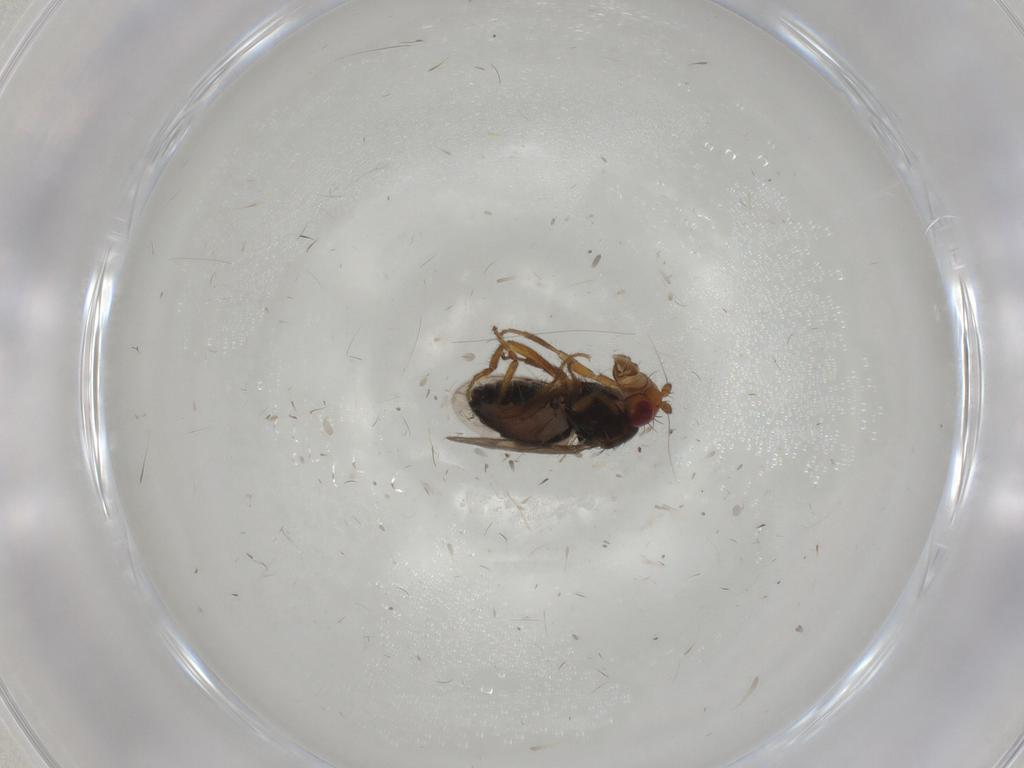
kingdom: Animalia
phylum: Arthropoda
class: Insecta
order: Diptera
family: Sphaeroceridae
